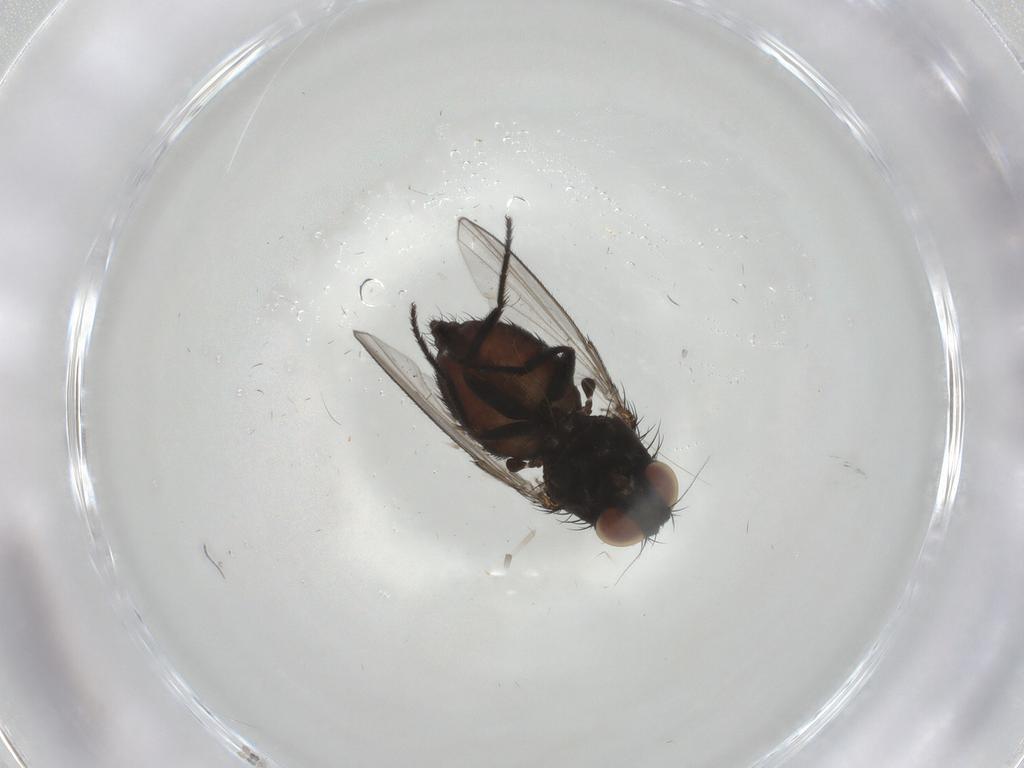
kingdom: Animalia
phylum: Arthropoda
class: Insecta
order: Diptera
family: Milichiidae
